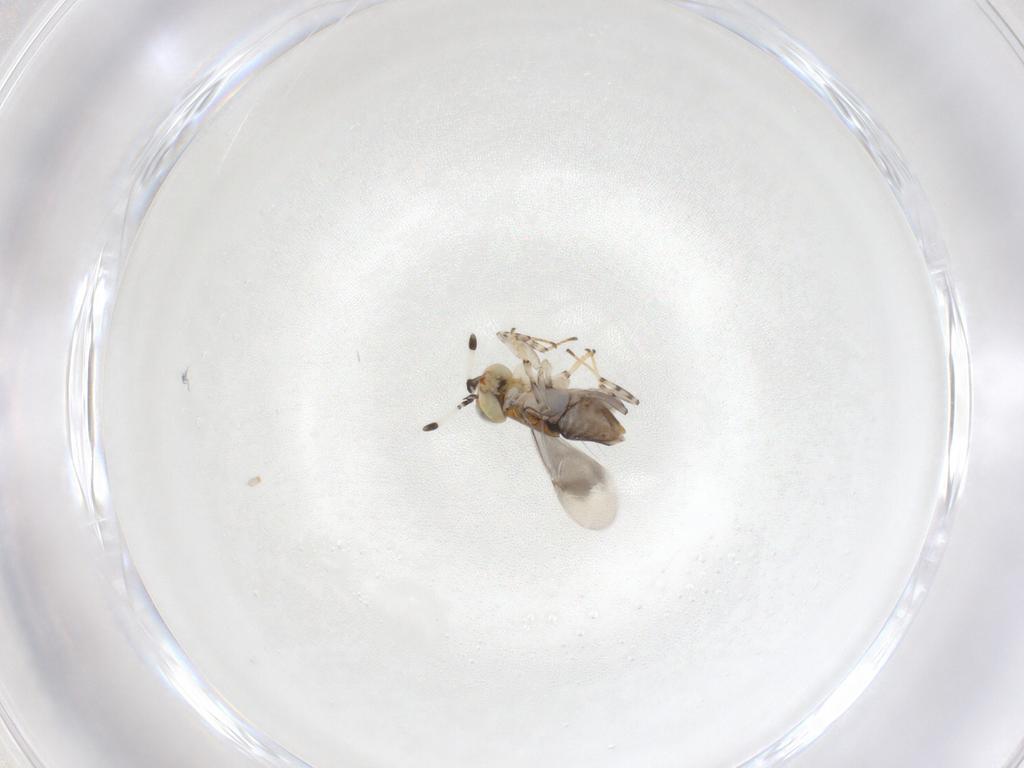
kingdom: Animalia
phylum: Arthropoda
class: Insecta
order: Hymenoptera
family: Encyrtidae
